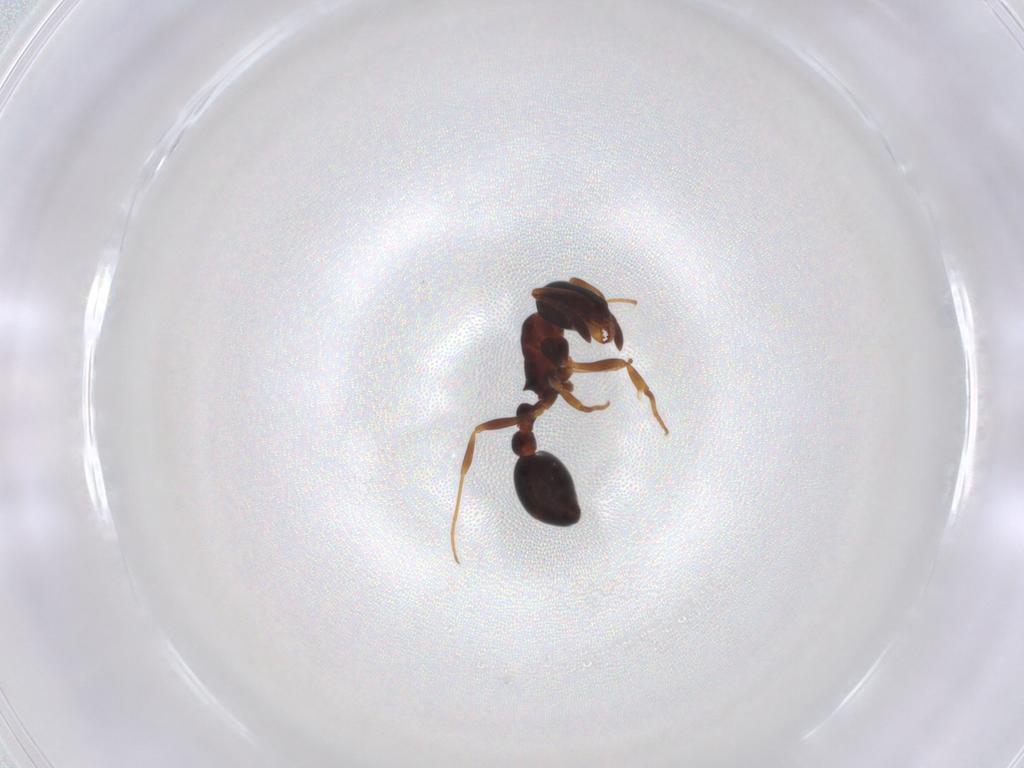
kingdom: Animalia
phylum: Arthropoda
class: Insecta
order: Hymenoptera
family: Formicidae
